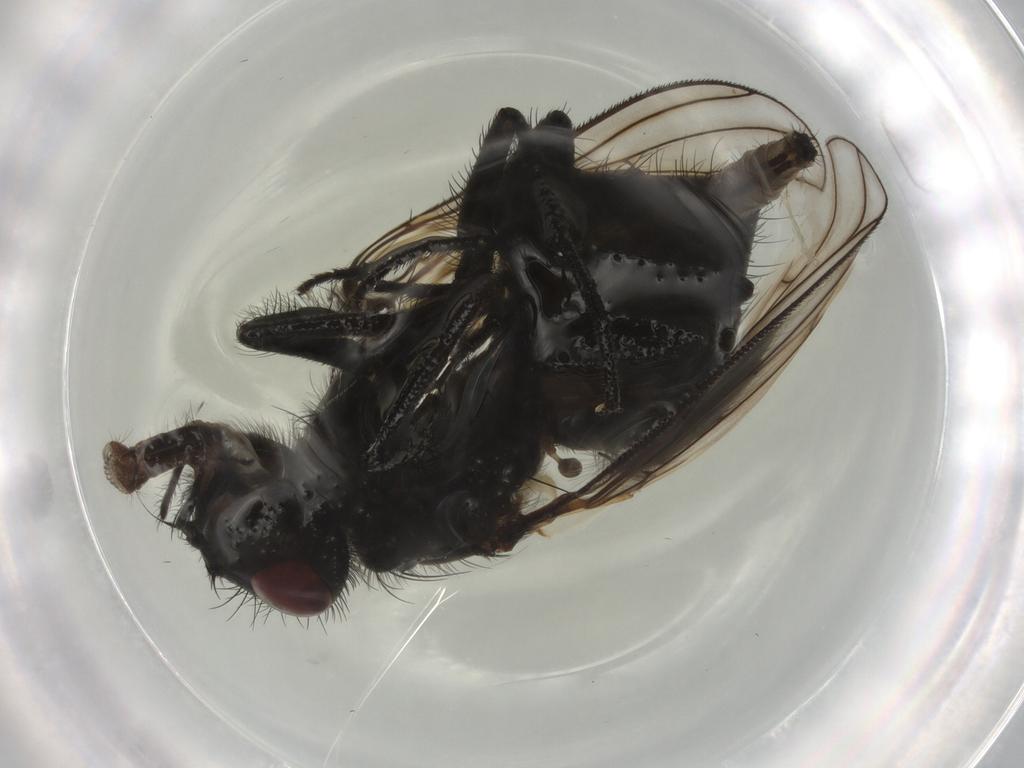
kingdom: Animalia
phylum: Arthropoda
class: Insecta
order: Diptera
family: Muscidae
